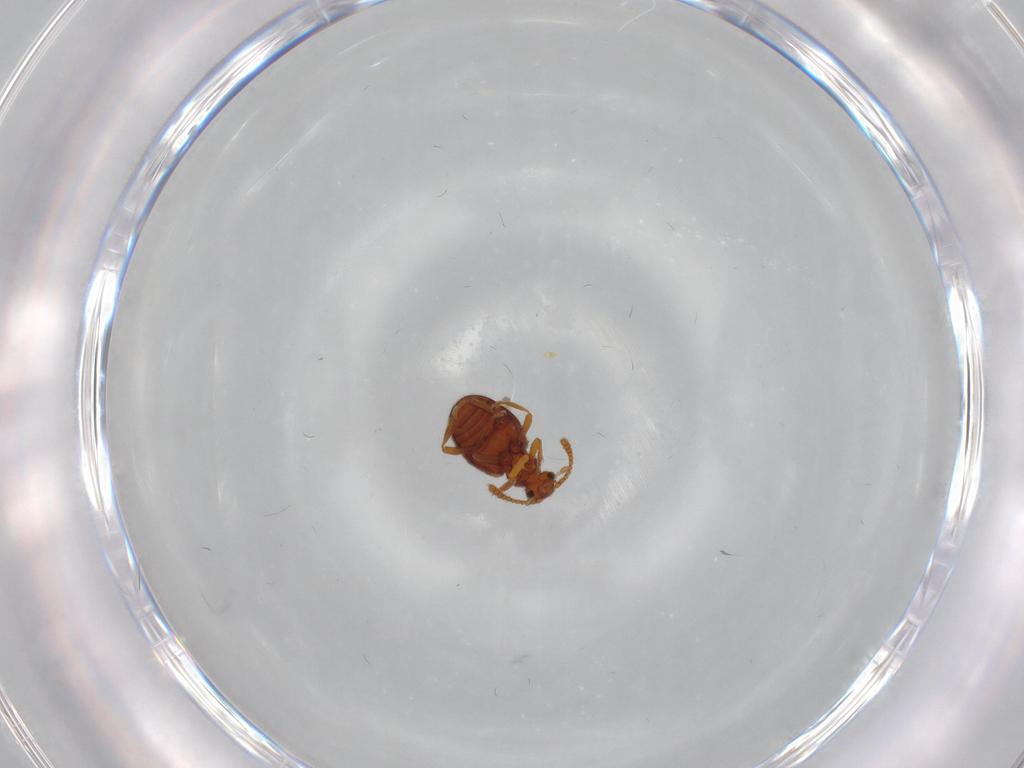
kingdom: Animalia
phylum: Arthropoda
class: Insecta
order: Coleoptera
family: Aderidae
